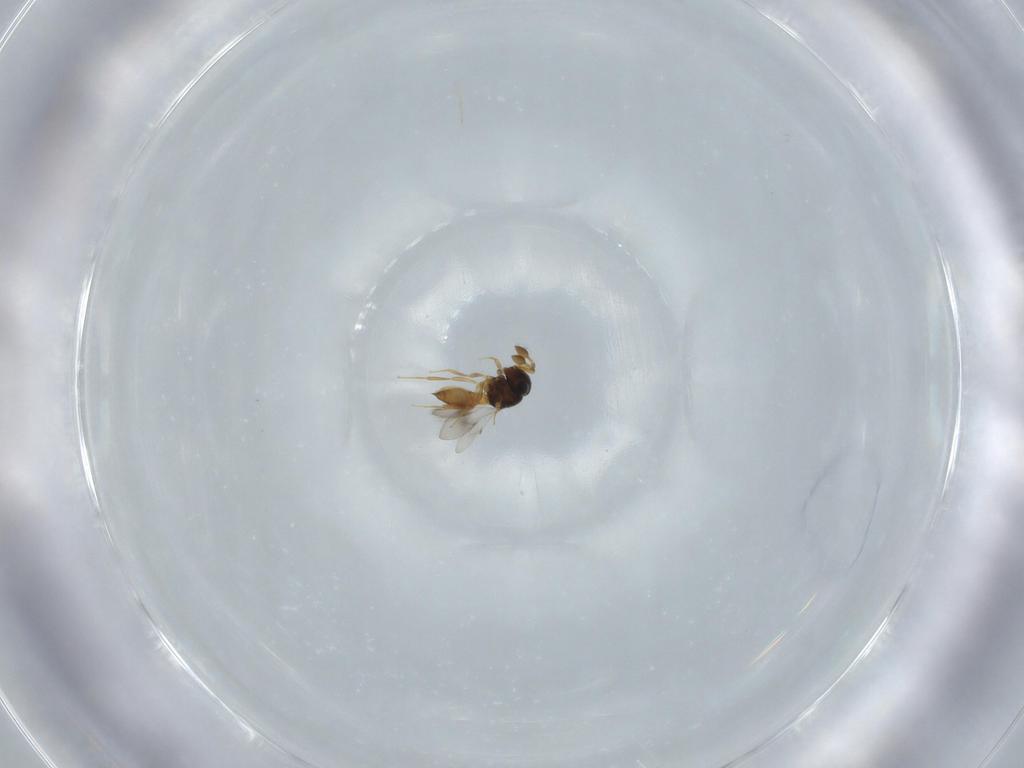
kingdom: Animalia
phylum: Arthropoda
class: Insecta
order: Hymenoptera
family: Scelionidae
